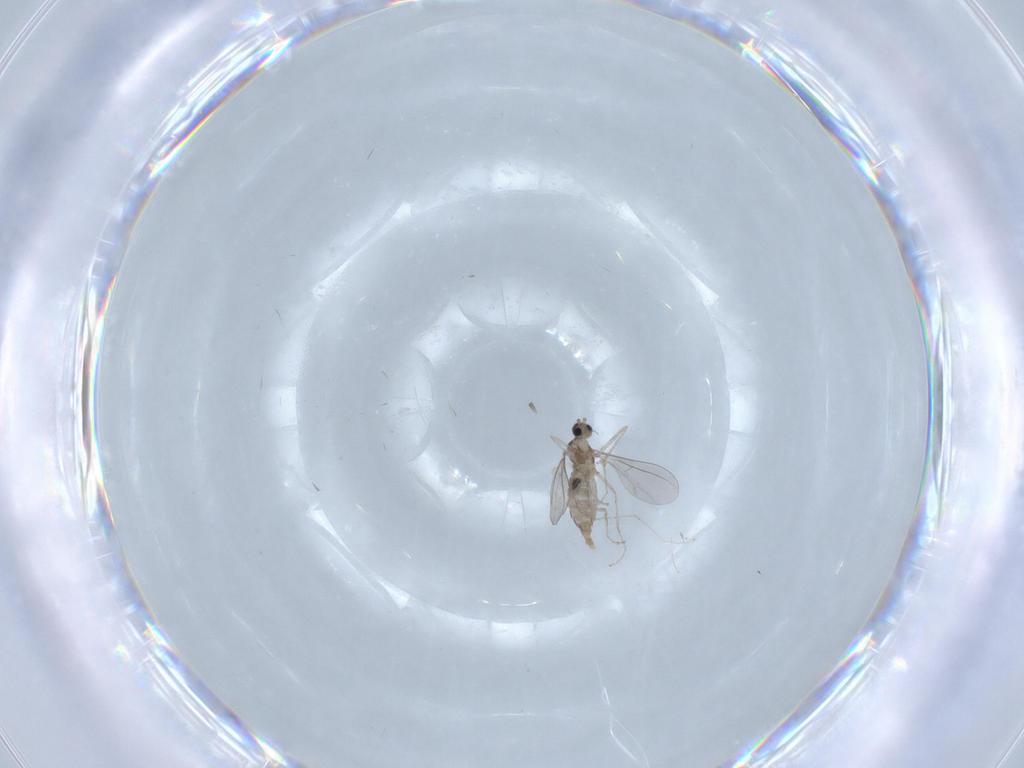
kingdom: Animalia
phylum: Arthropoda
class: Insecta
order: Diptera
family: Cecidomyiidae
